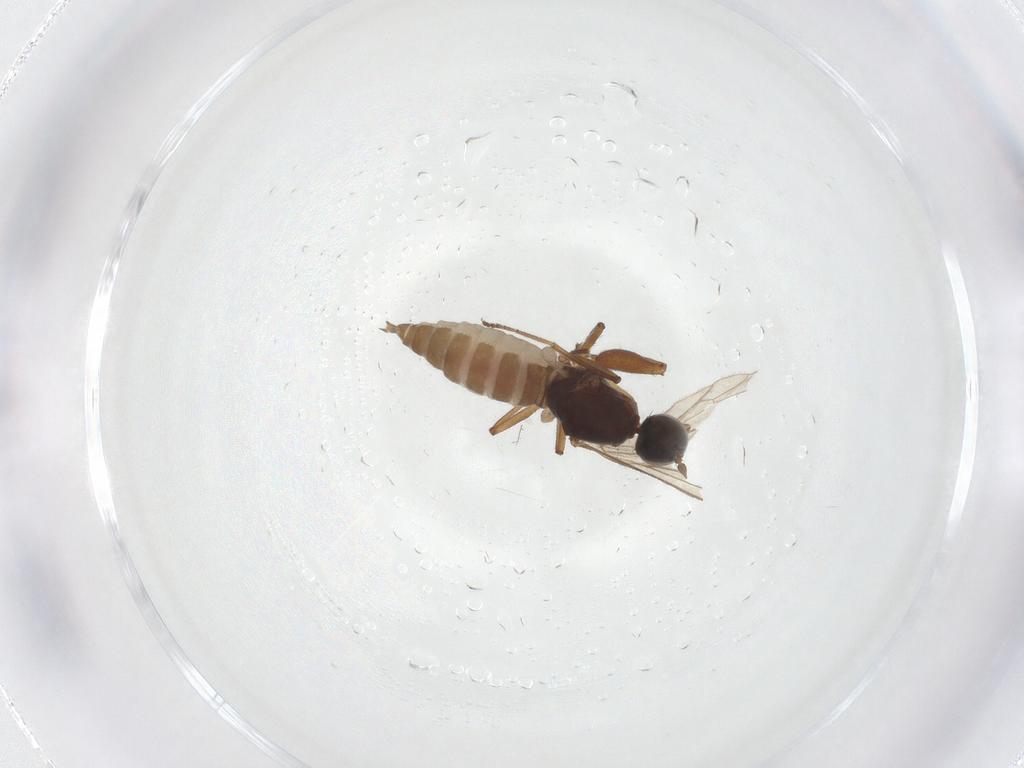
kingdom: Animalia
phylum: Arthropoda
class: Insecta
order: Diptera
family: Empididae
